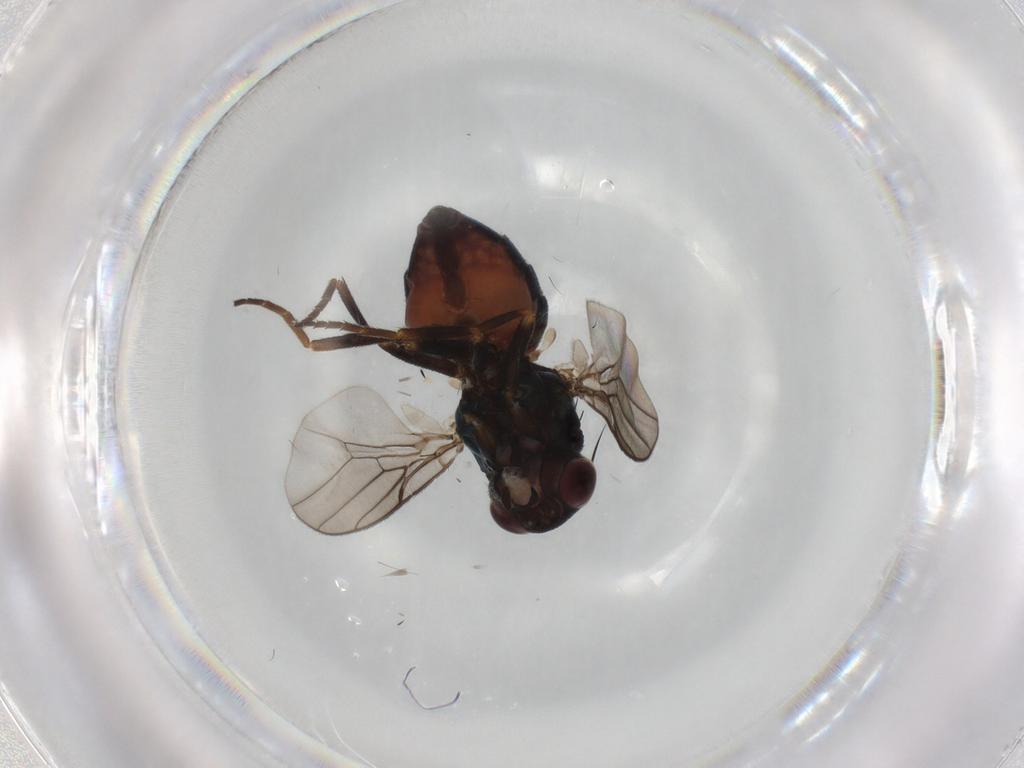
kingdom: Animalia
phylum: Arthropoda
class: Insecta
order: Diptera
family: Chloropidae
